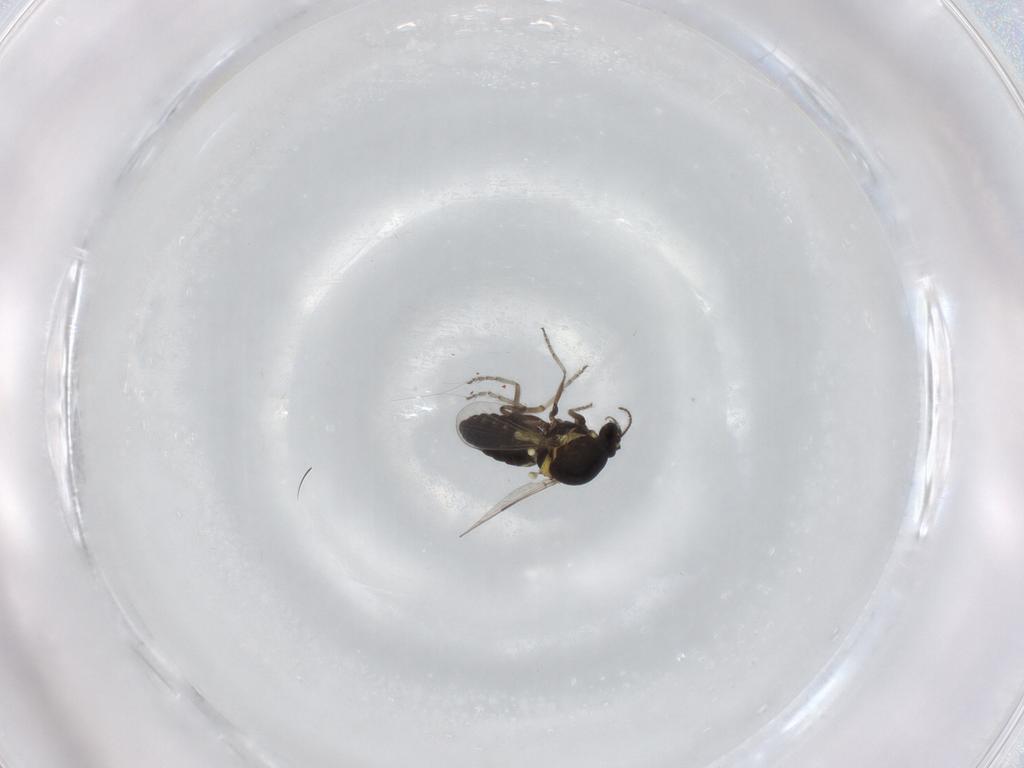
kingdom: Animalia
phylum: Arthropoda
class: Insecta
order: Diptera
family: Ceratopogonidae
